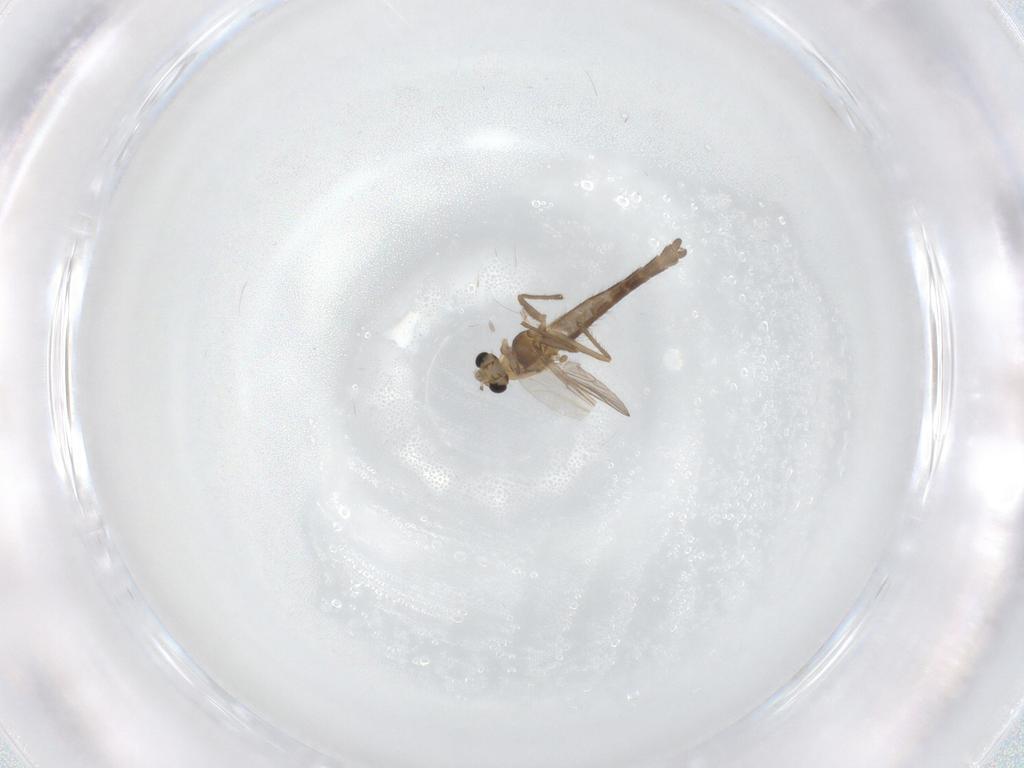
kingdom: Animalia
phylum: Arthropoda
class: Insecta
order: Diptera
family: Chironomidae
